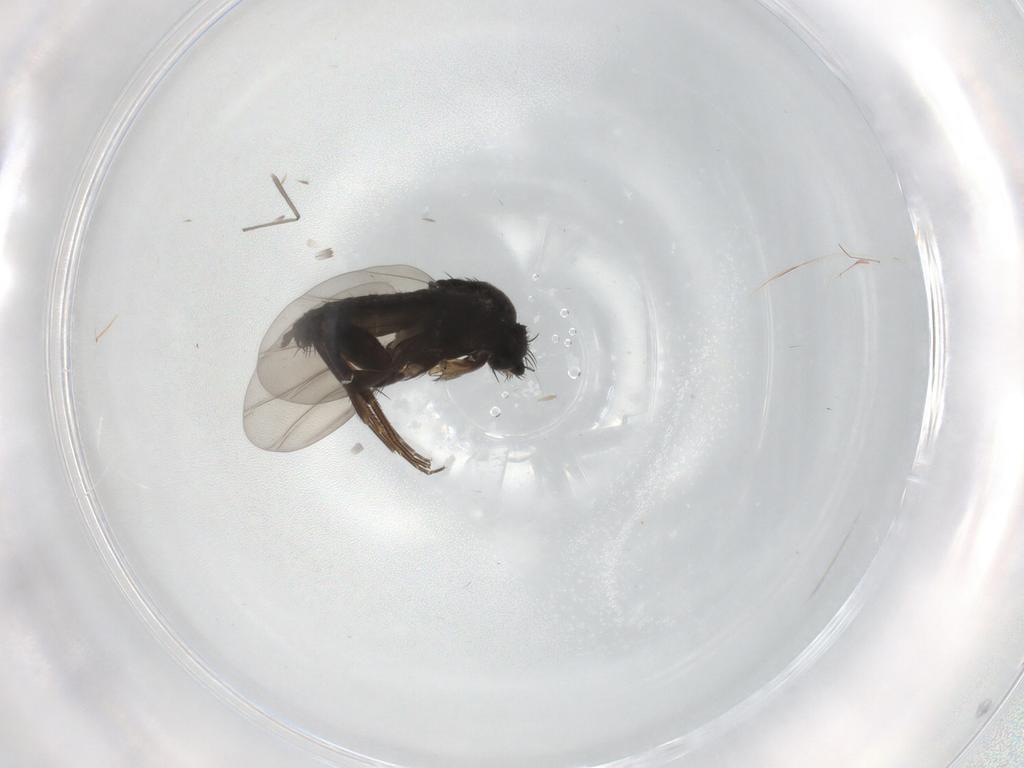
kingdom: Animalia
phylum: Arthropoda
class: Insecta
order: Diptera
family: Phoridae
